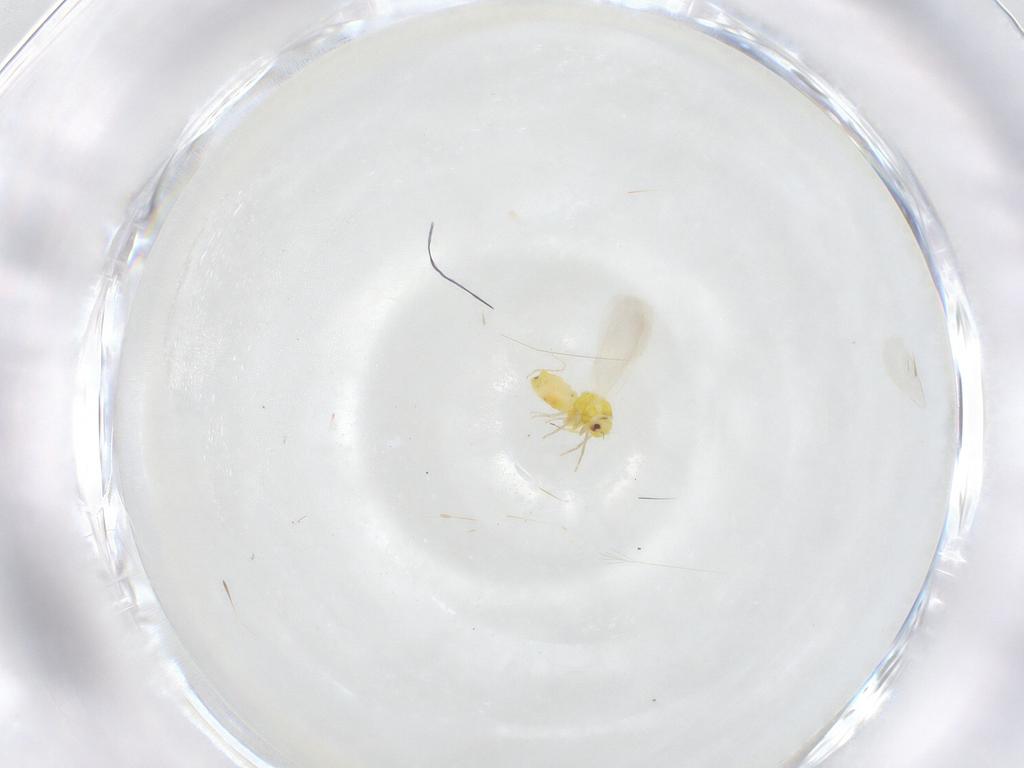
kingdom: Animalia
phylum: Arthropoda
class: Insecta
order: Hemiptera
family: Aleyrodidae
